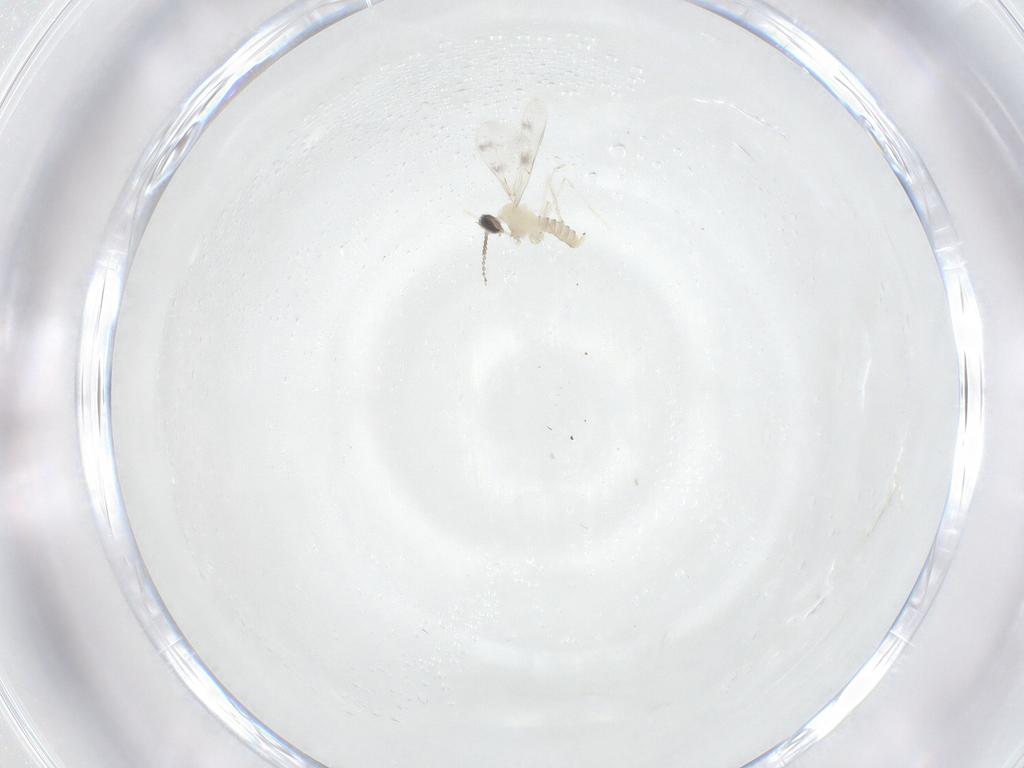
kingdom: Animalia
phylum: Arthropoda
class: Insecta
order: Diptera
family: Cecidomyiidae
